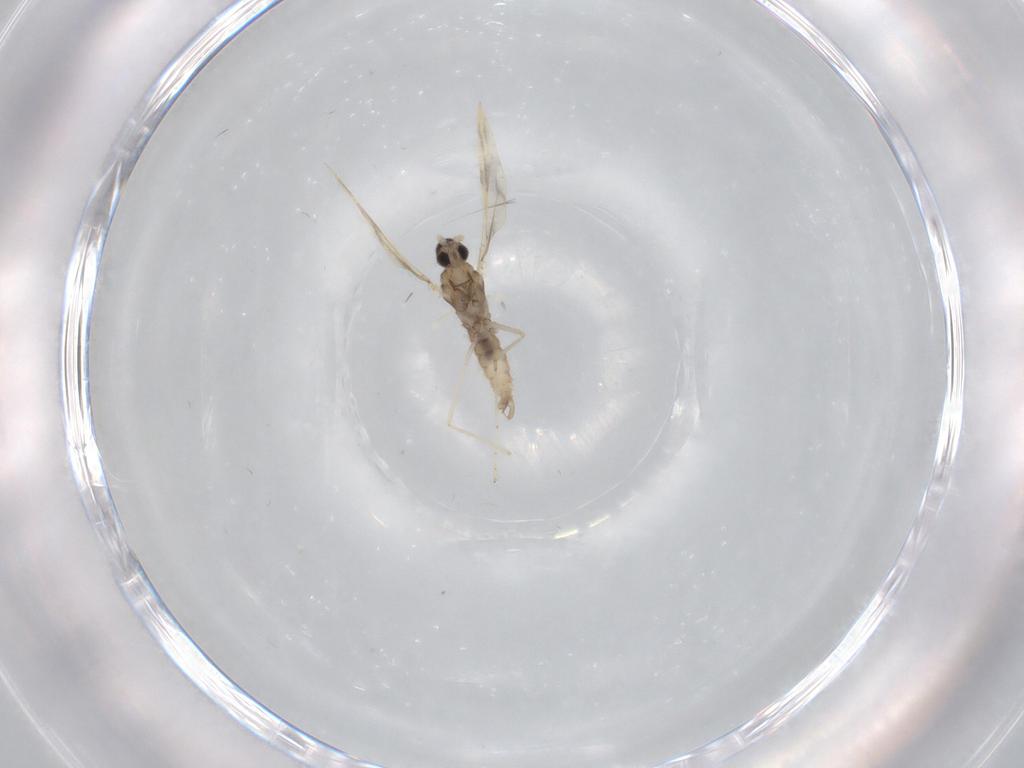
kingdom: Animalia
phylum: Arthropoda
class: Insecta
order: Diptera
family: Cecidomyiidae
